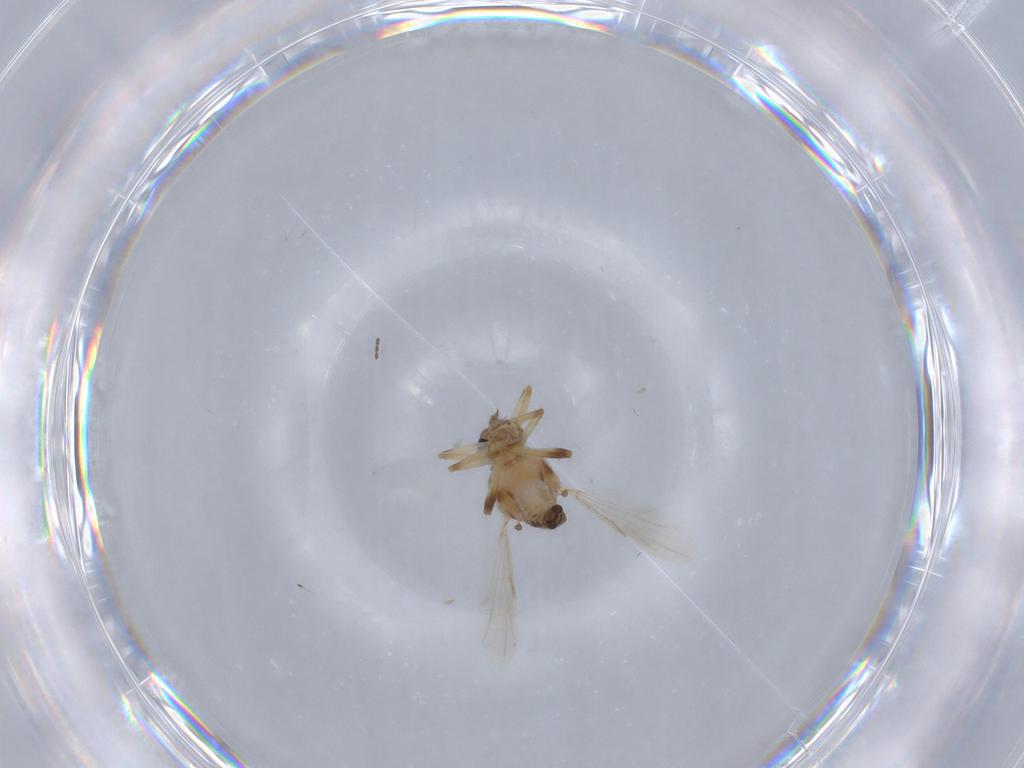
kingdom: Animalia
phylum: Arthropoda
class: Insecta
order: Diptera
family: Ceratopogonidae
